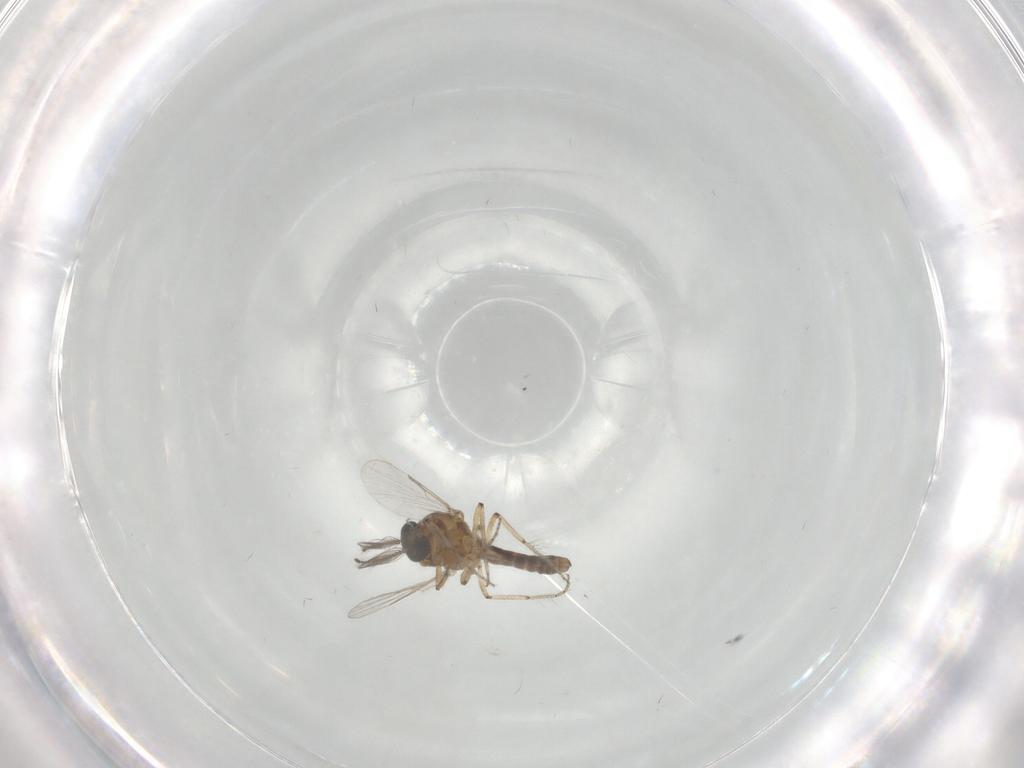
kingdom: Animalia
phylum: Arthropoda
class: Insecta
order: Diptera
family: Ceratopogonidae
